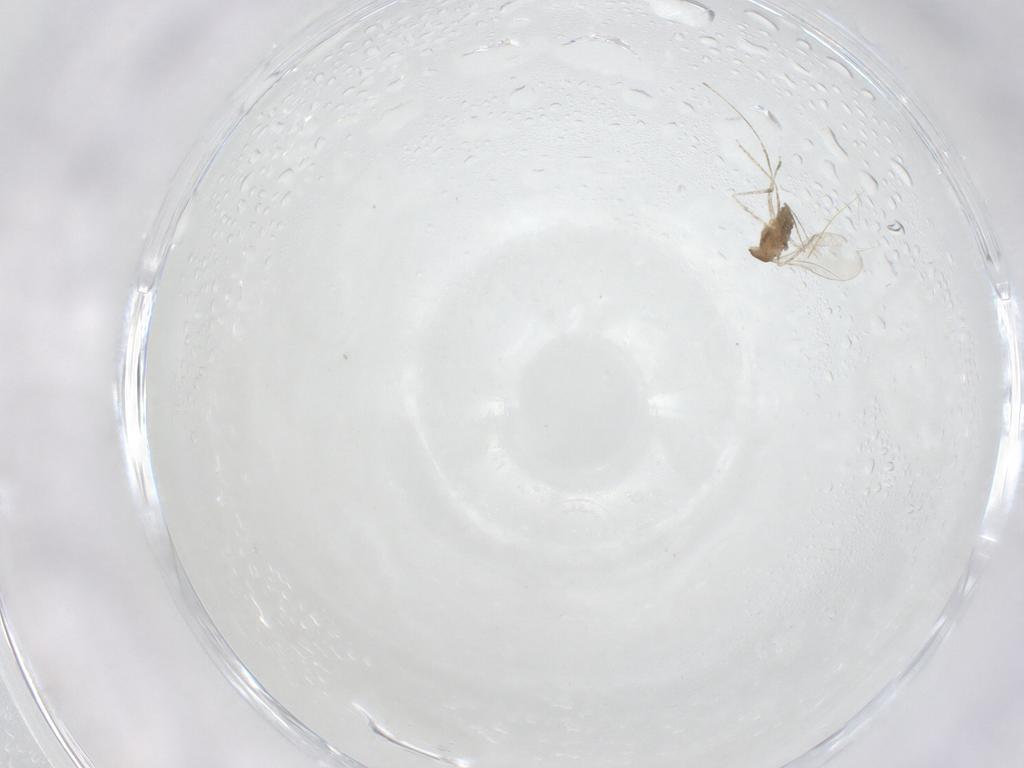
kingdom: Animalia
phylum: Arthropoda
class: Insecta
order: Diptera
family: Cecidomyiidae
